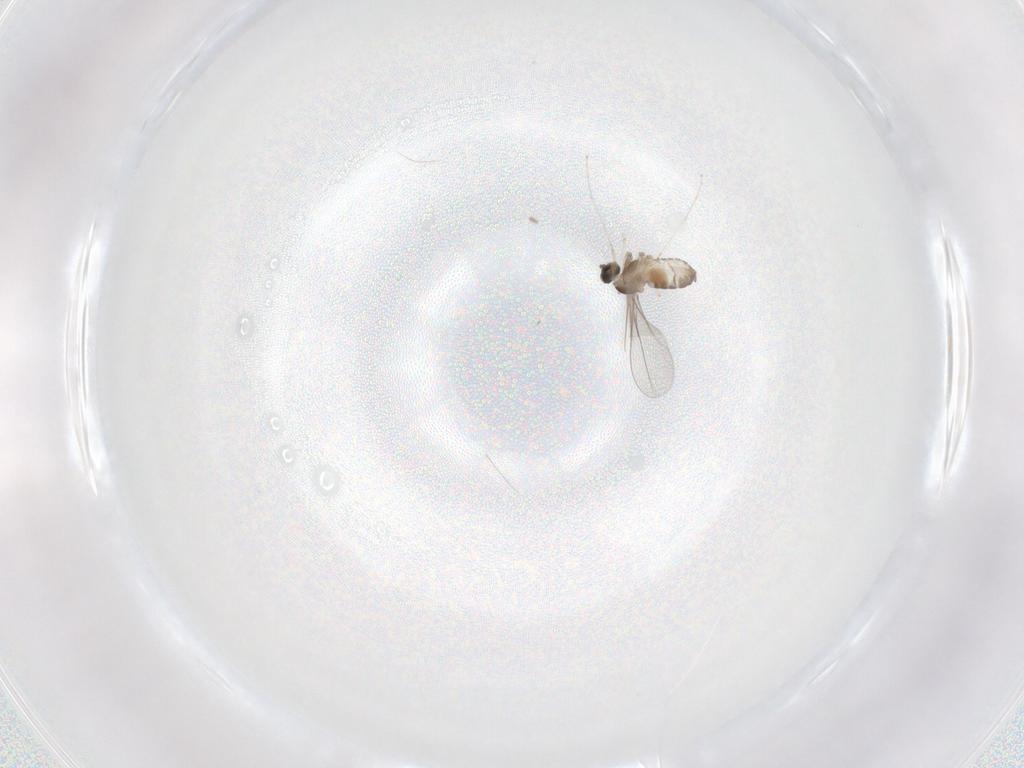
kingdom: Animalia
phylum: Arthropoda
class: Insecta
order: Diptera
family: Cecidomyiidae
